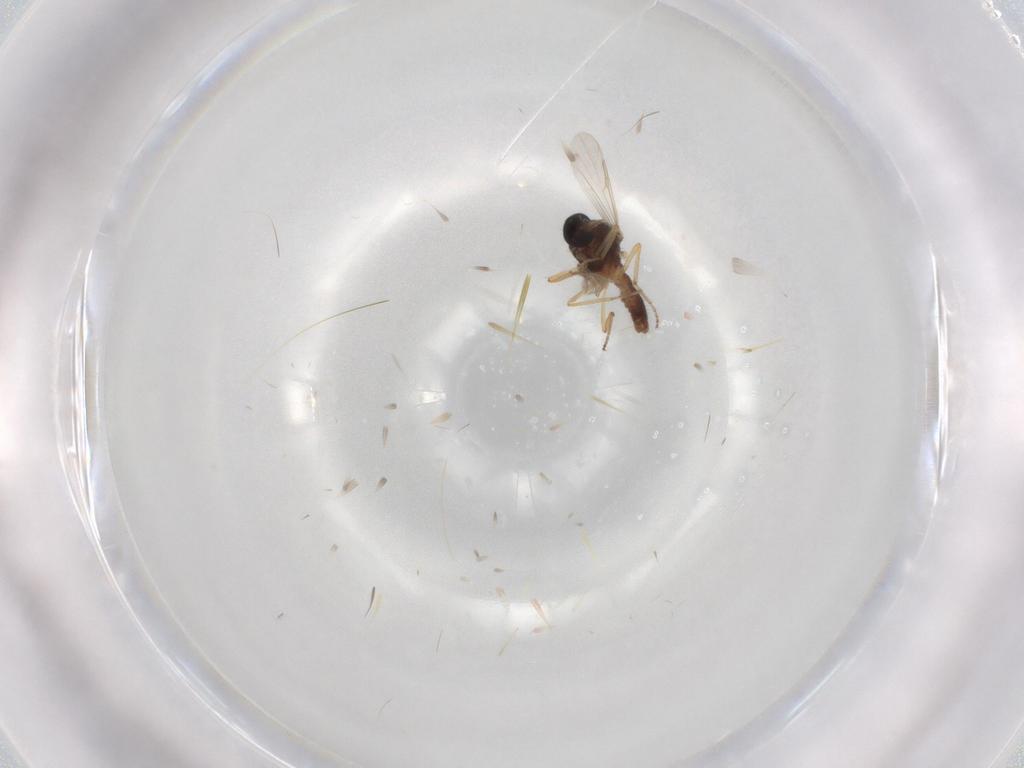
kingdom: Animalia
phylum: Arthropoda
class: Insecta
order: Diptera
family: Ceratopogonidae
